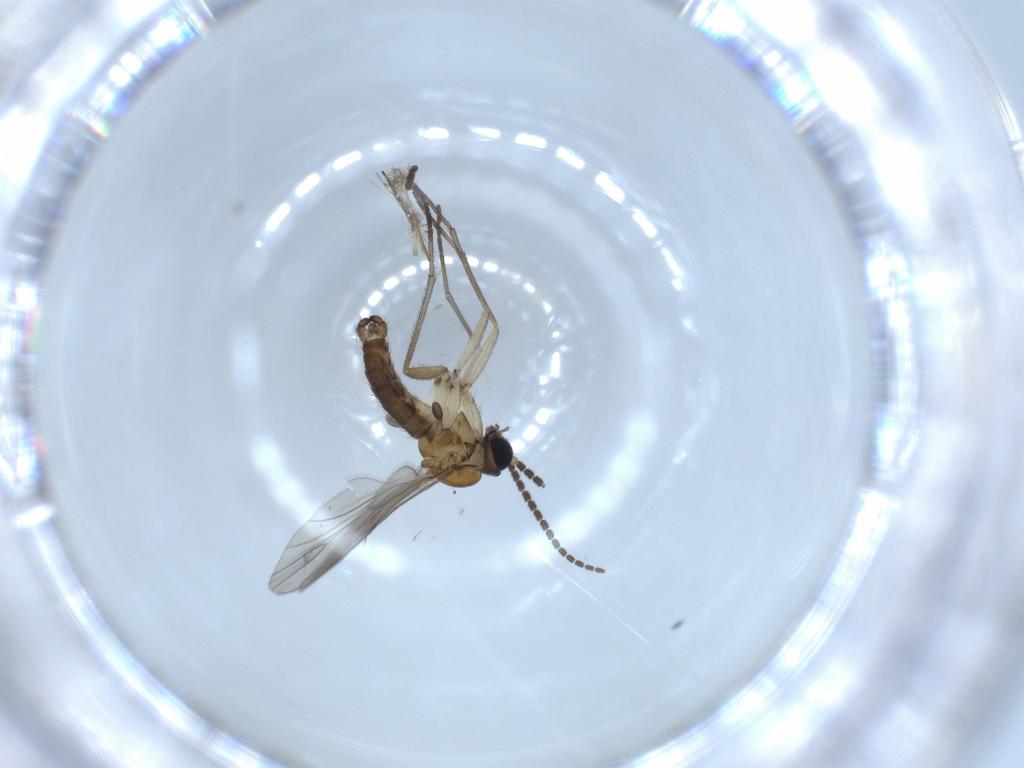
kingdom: Animalia
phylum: Arthropoda
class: Insecta
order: Diptera
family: Sciaridae
